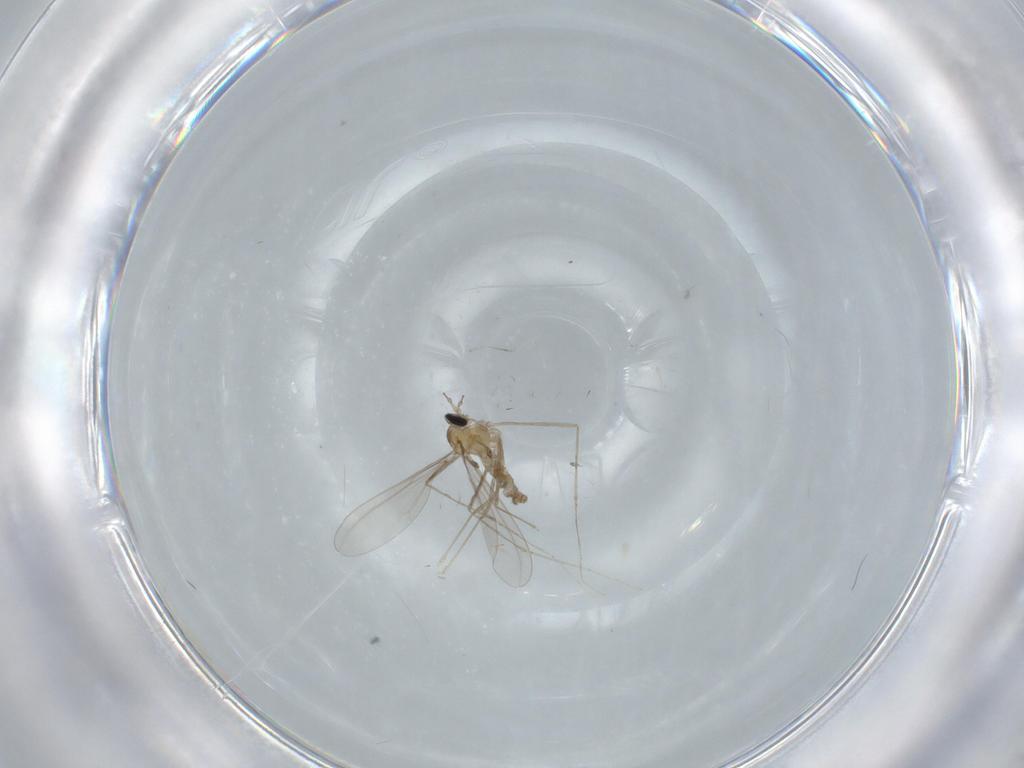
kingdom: Animalia
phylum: Arthropoda
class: Insecta
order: Diptera
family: Cecidomyiidae
